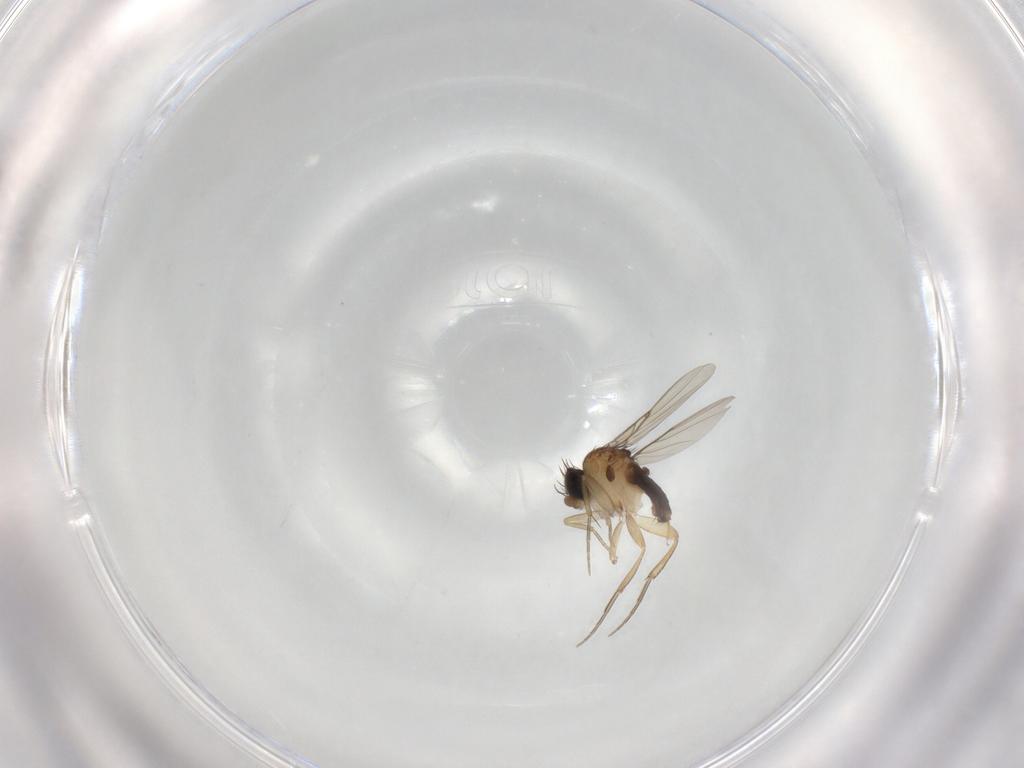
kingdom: Animalia
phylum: Arthropoda
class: Insecta
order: Diptera
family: Phoridae
